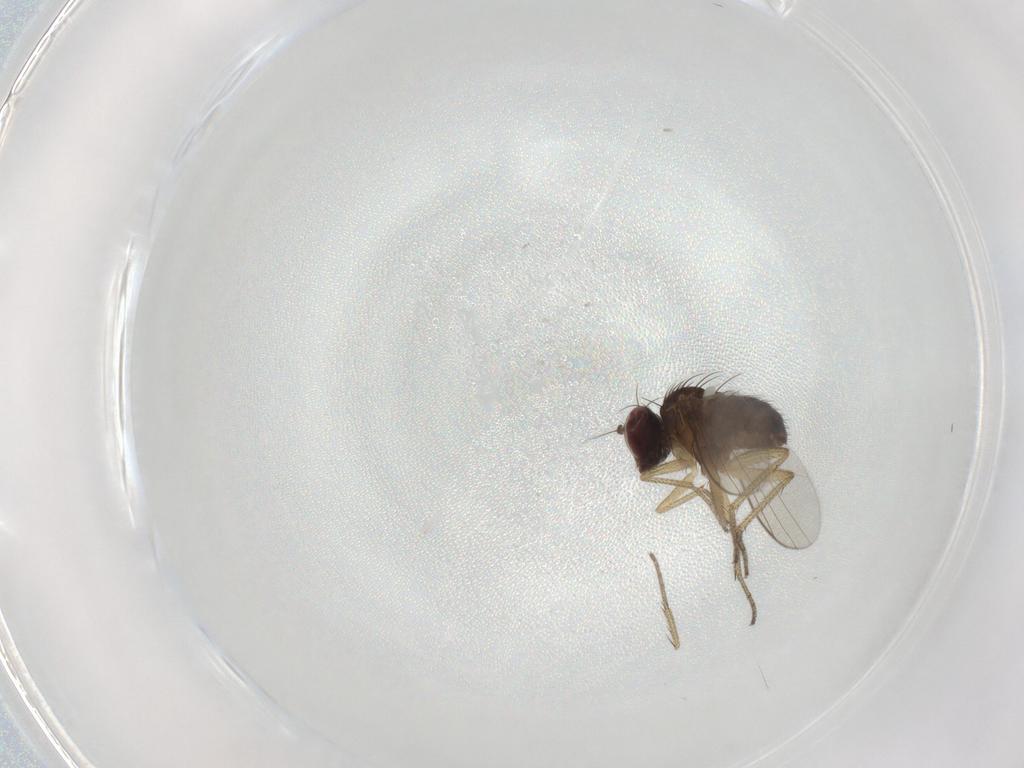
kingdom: Animalia
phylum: Arthropoda
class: Insecta
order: Diptera
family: Dolichopodidae
